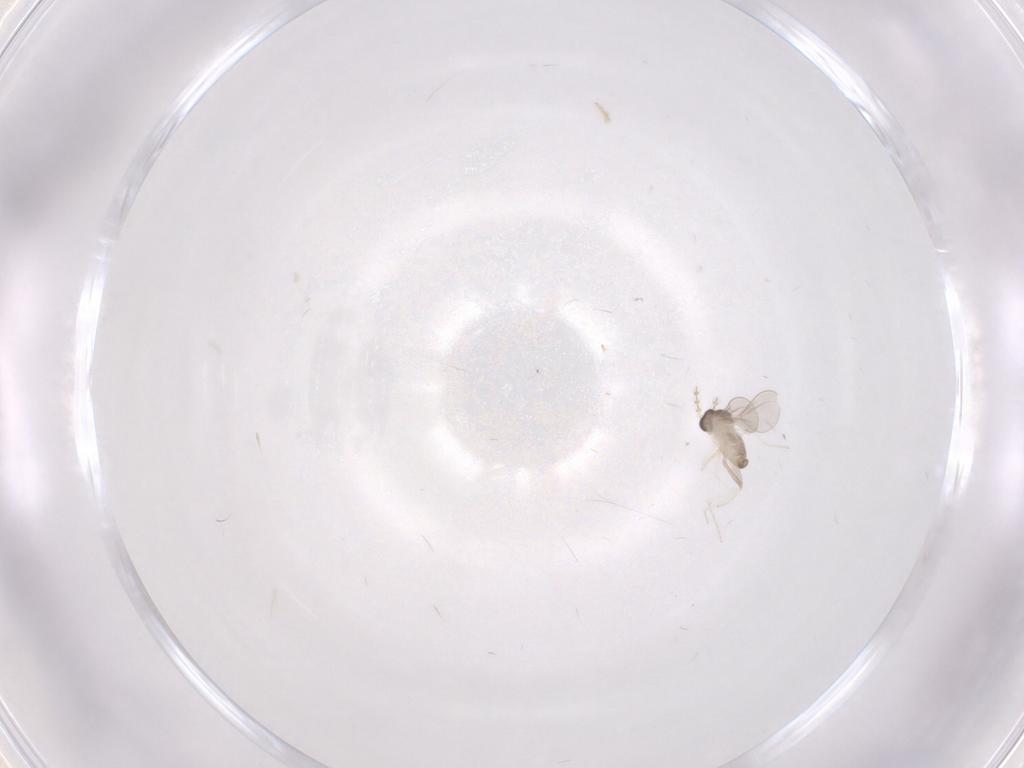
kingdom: Animalia
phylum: Arthropoda
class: Insecta
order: Diptera
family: Cecidomyiidae
